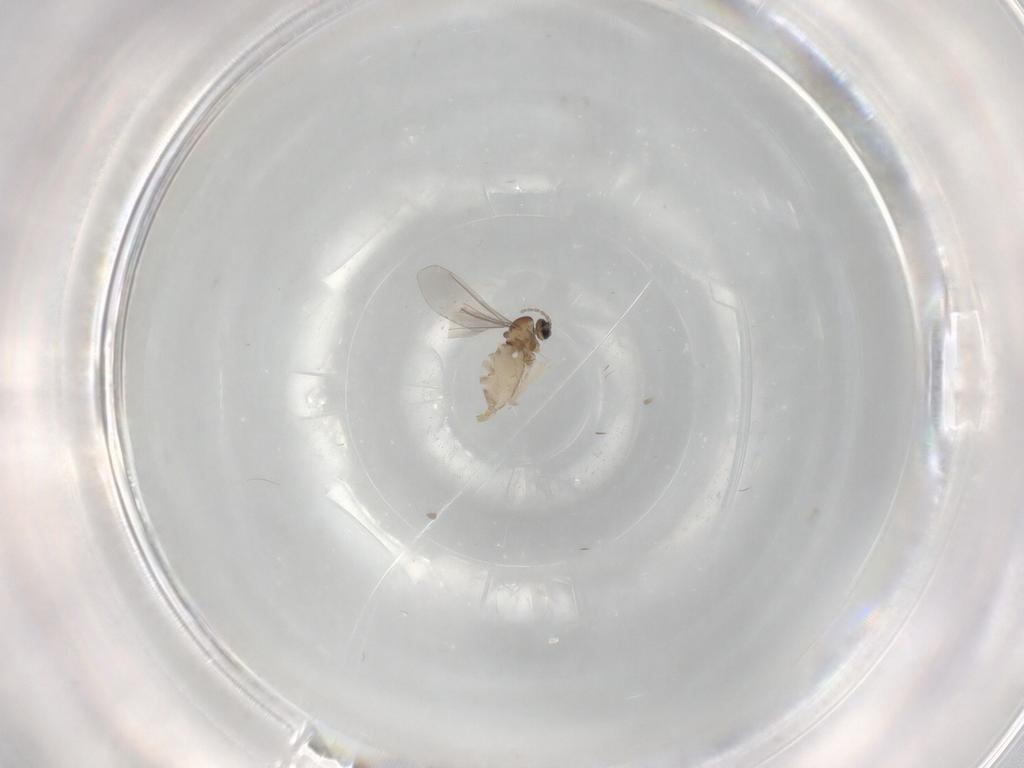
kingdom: Animalia
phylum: Arthropoda
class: Insecta
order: Diptera
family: Cecidomyiidae
